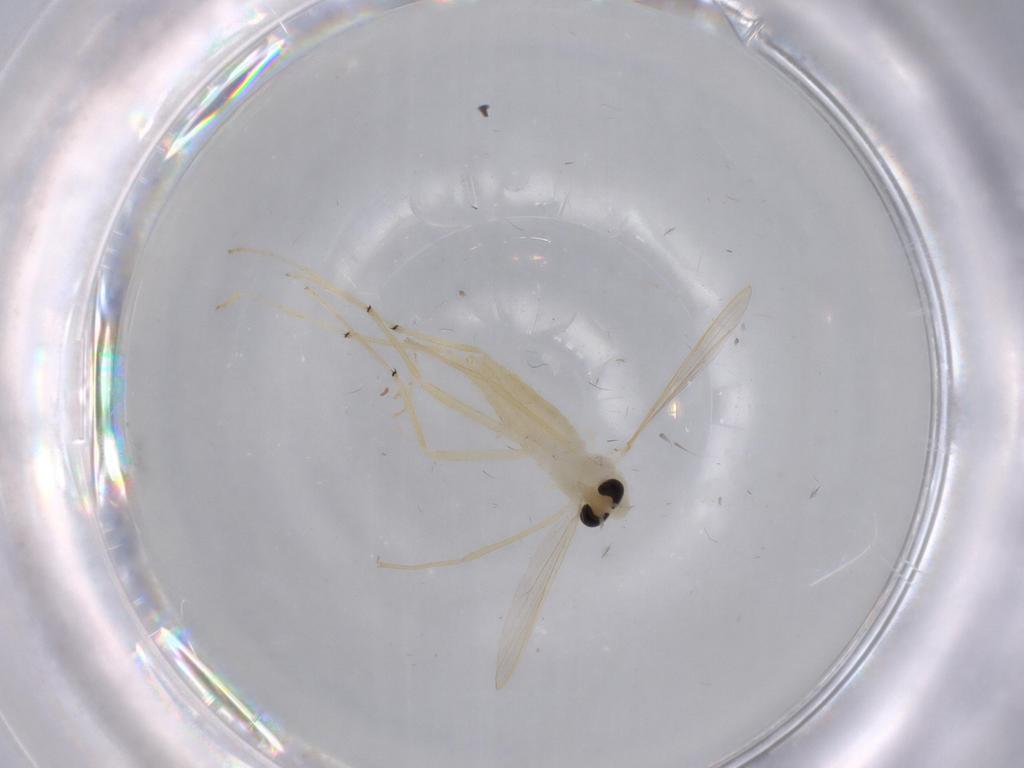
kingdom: Animalia
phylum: Arthropoda
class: Insecta
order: Diptera
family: Chironomidae
